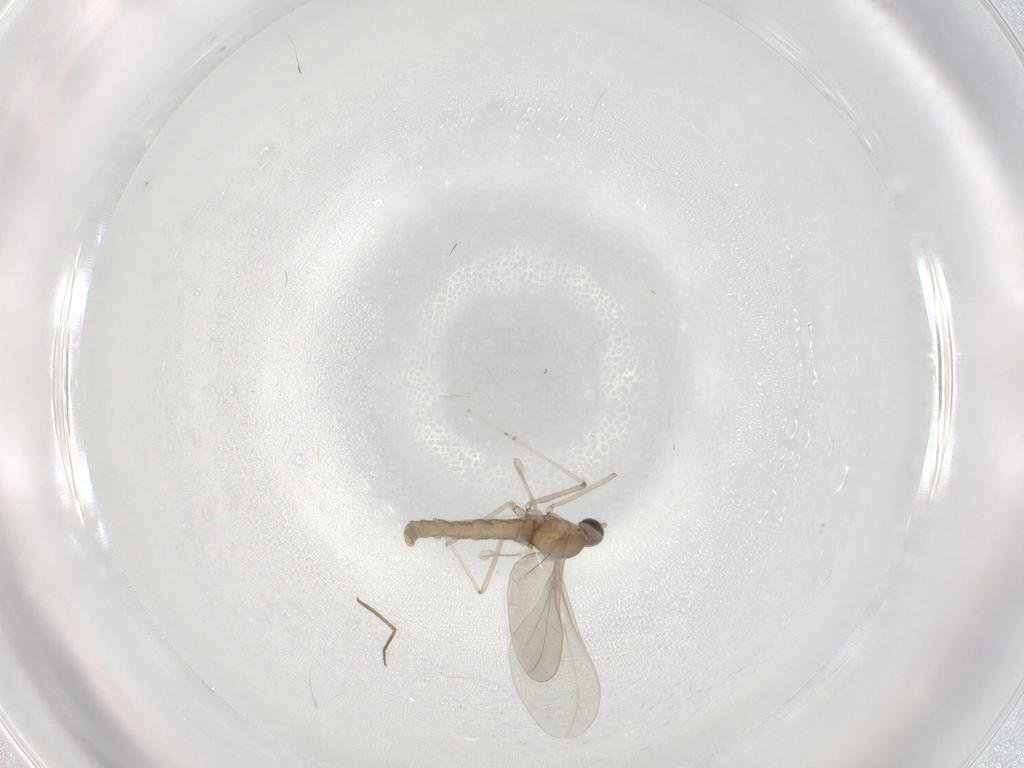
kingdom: Animalia
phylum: Arthropoda
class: Insecta
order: Diptera
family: Cecidomyiidae
